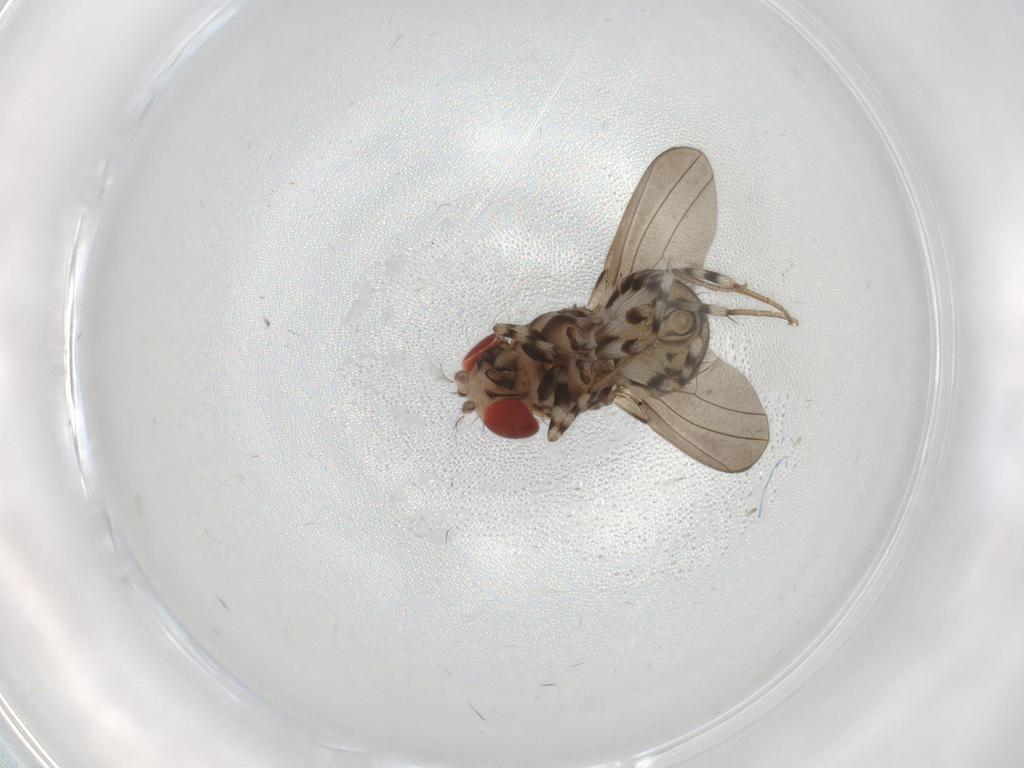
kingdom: Animalia
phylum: Arthropoda
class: Insecta
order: Diptera
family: Drosophilidae
